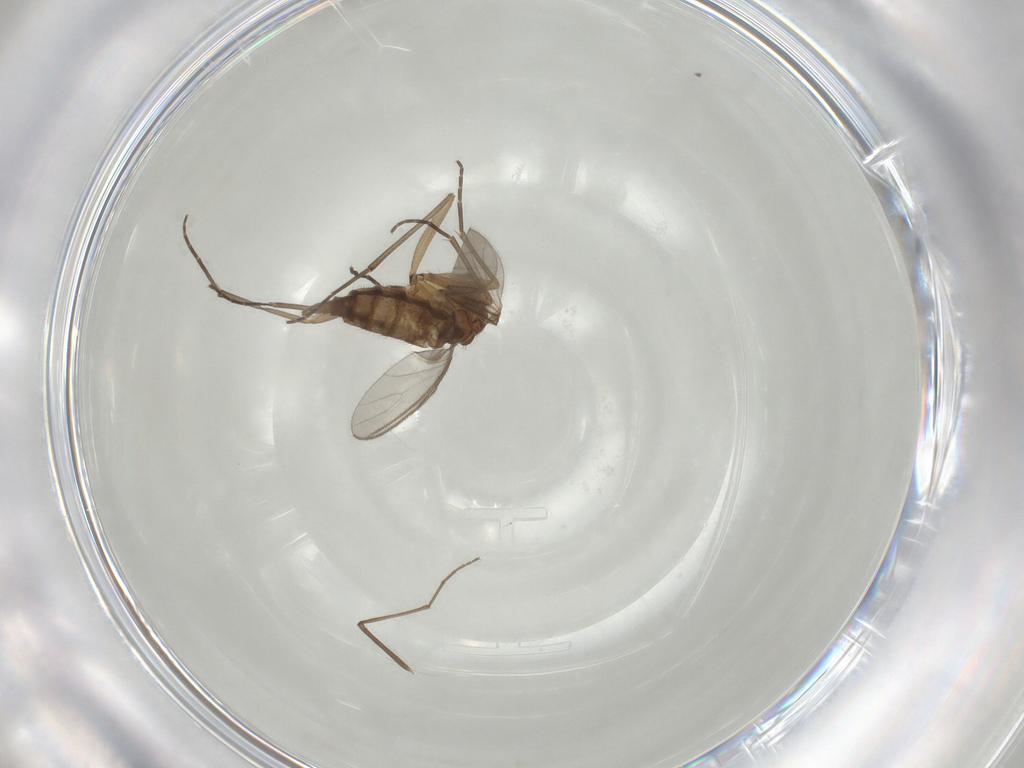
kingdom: Animalia
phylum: Arthropoda
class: Insecta
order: Diptera
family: Sciaridae
